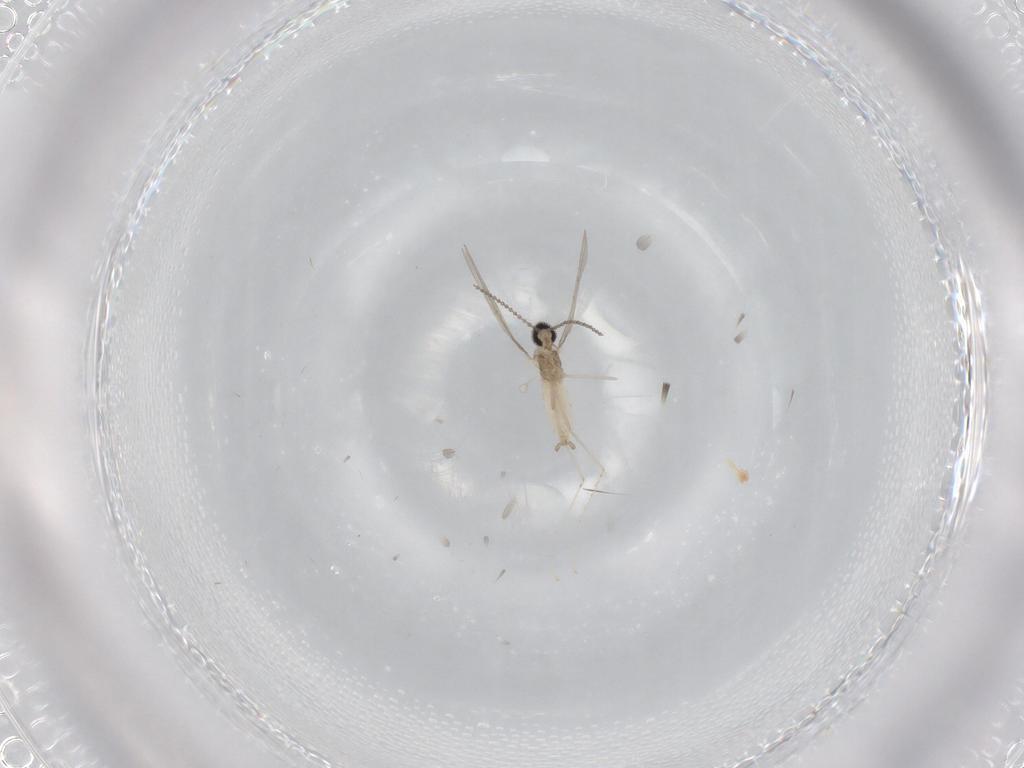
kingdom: Animalia
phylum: Arthropoda
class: Insecta
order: Diptera
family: Cecidomyiidae
